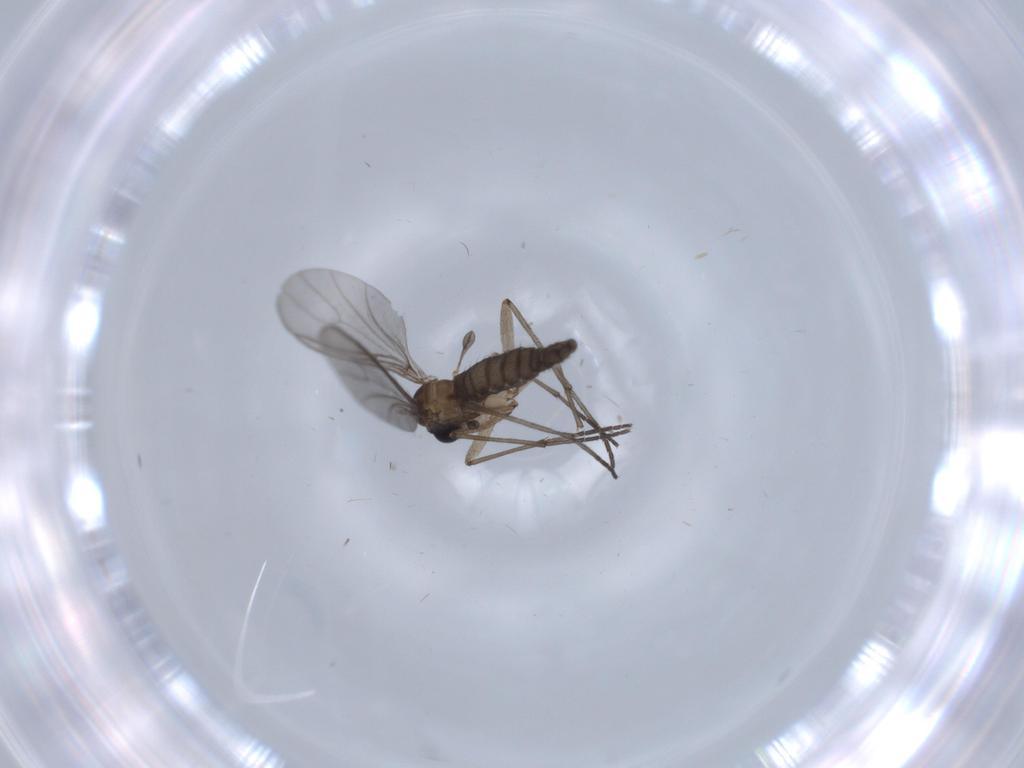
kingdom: Animalia
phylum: Arthropoda
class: Insecta
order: Diptera
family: Sciaridae
